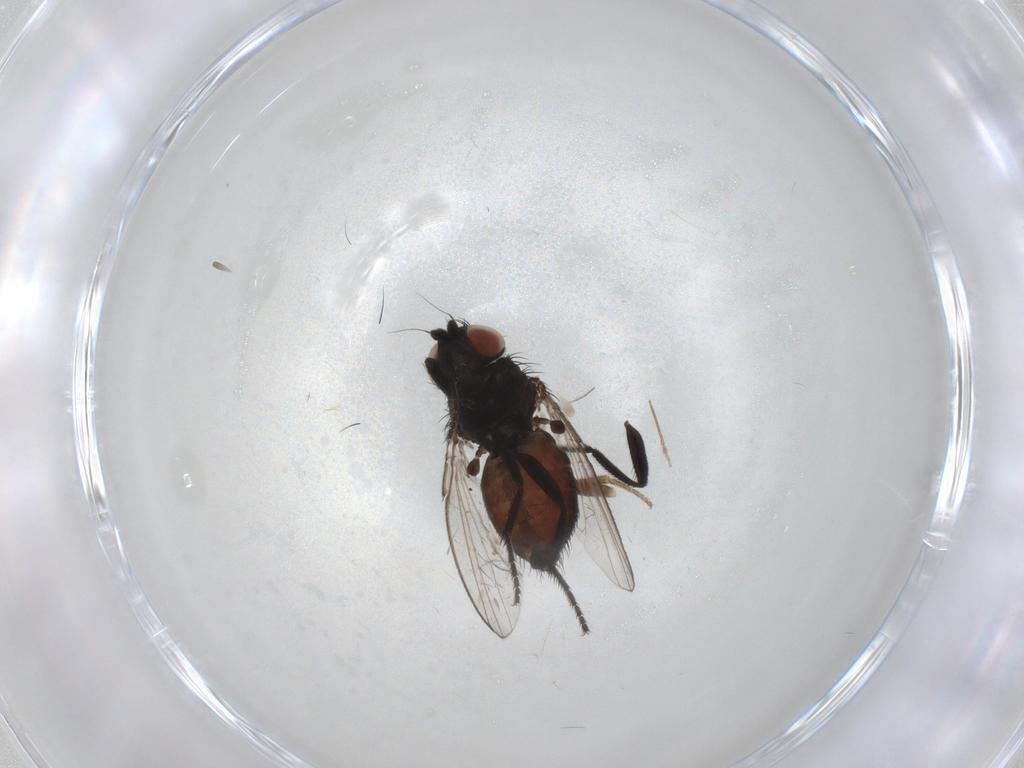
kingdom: Animalia
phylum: Arthropoda
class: Insecta
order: Diptera
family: Milichiidae
